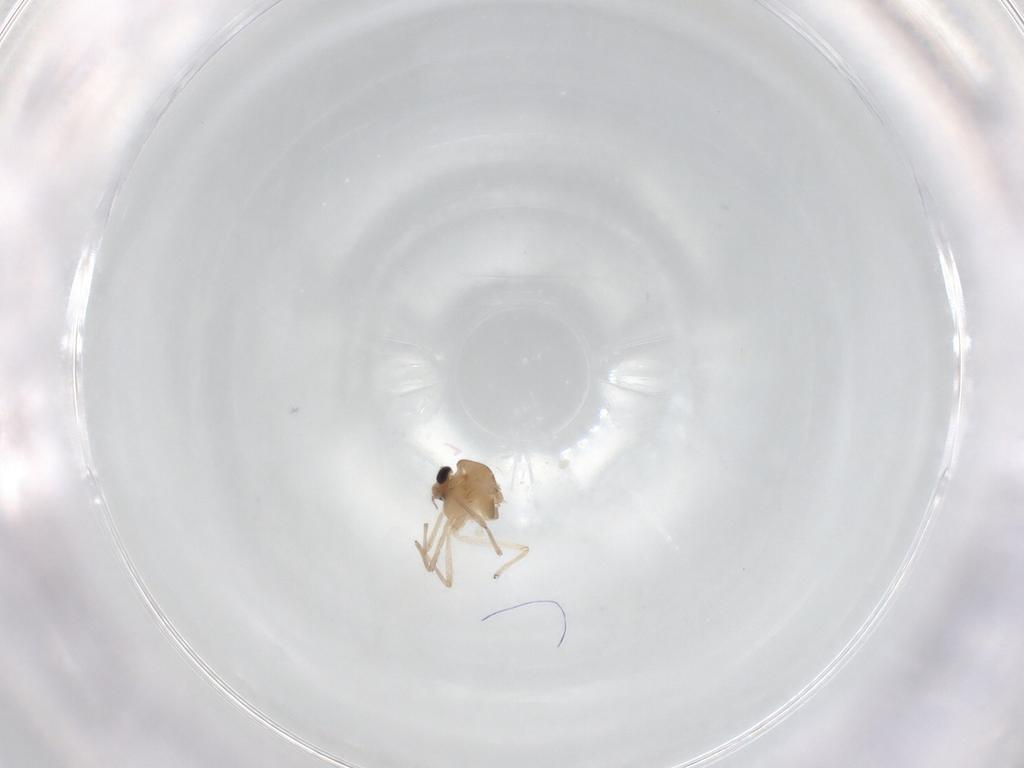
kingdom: Animalia
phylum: Arthropoda
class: Insecta
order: Diptera
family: Chironomidae
